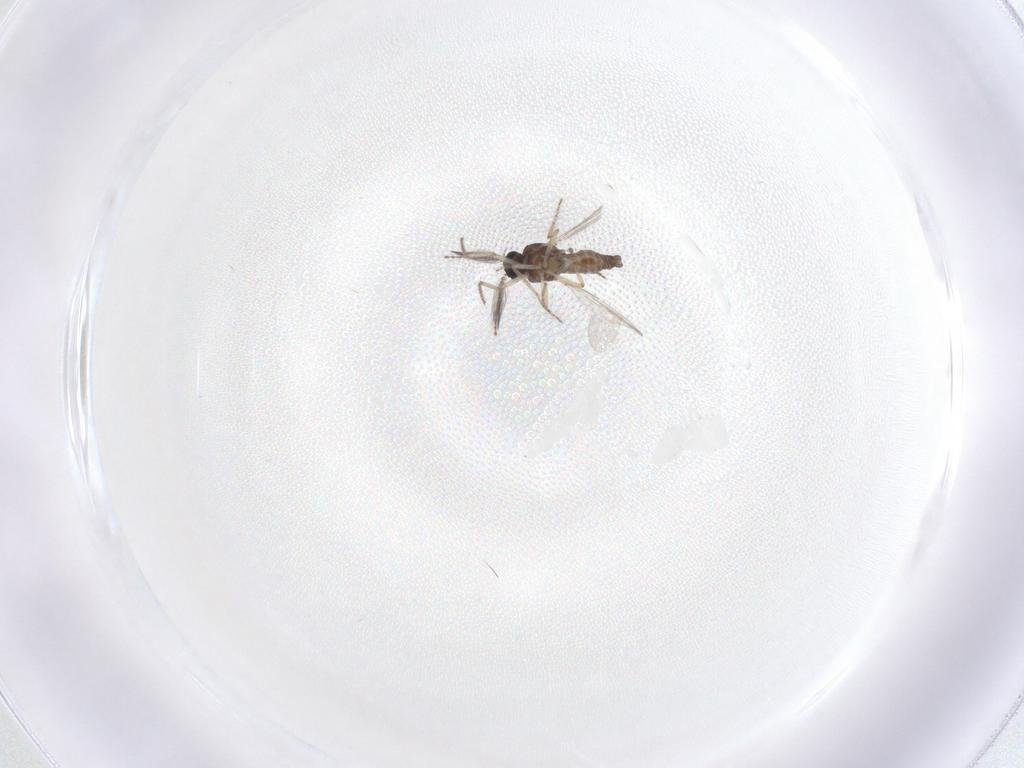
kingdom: Animalia
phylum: Arthropoda
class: Insecta
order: Diptera
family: Ceratopogonidae
